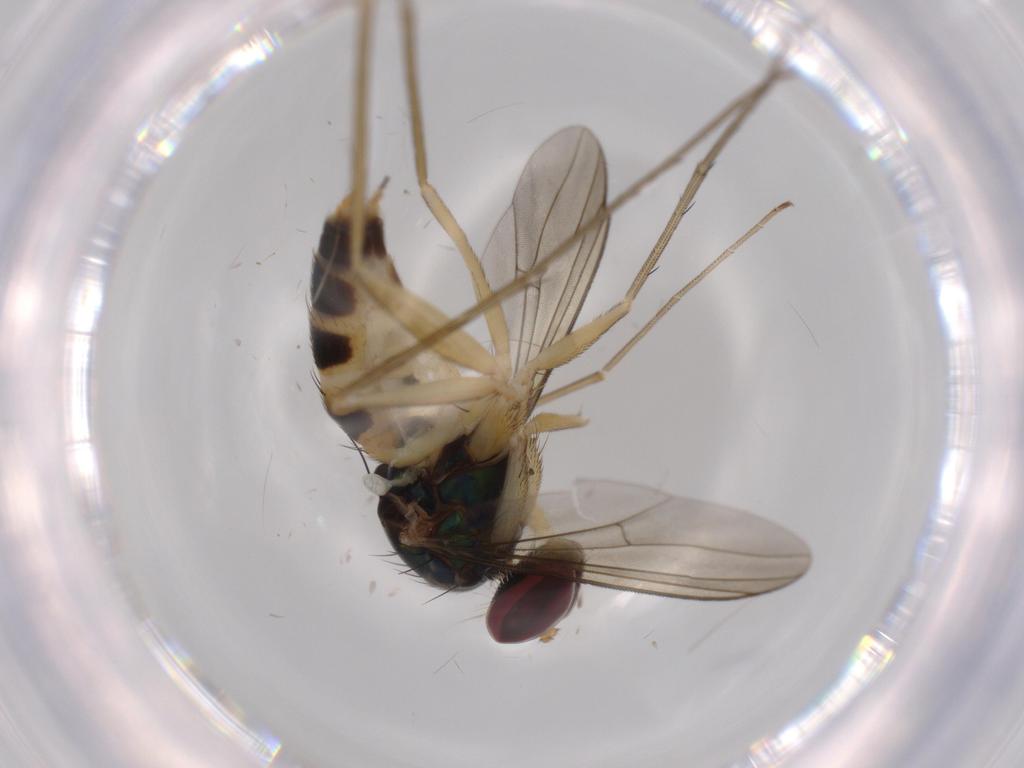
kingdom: Animalia
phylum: Arthropoda
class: Insecta
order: Diptera
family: Dolichopodidae
